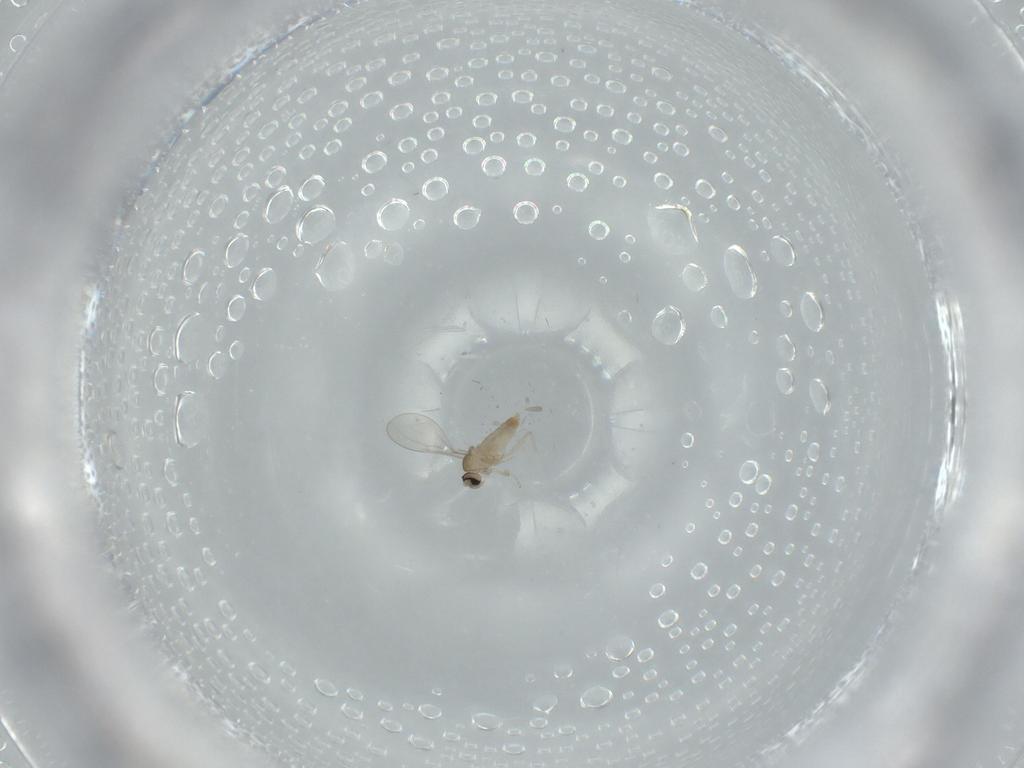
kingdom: Animalia
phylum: Arthropoda
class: Insecta
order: Diptera
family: Cecidomyiidae
